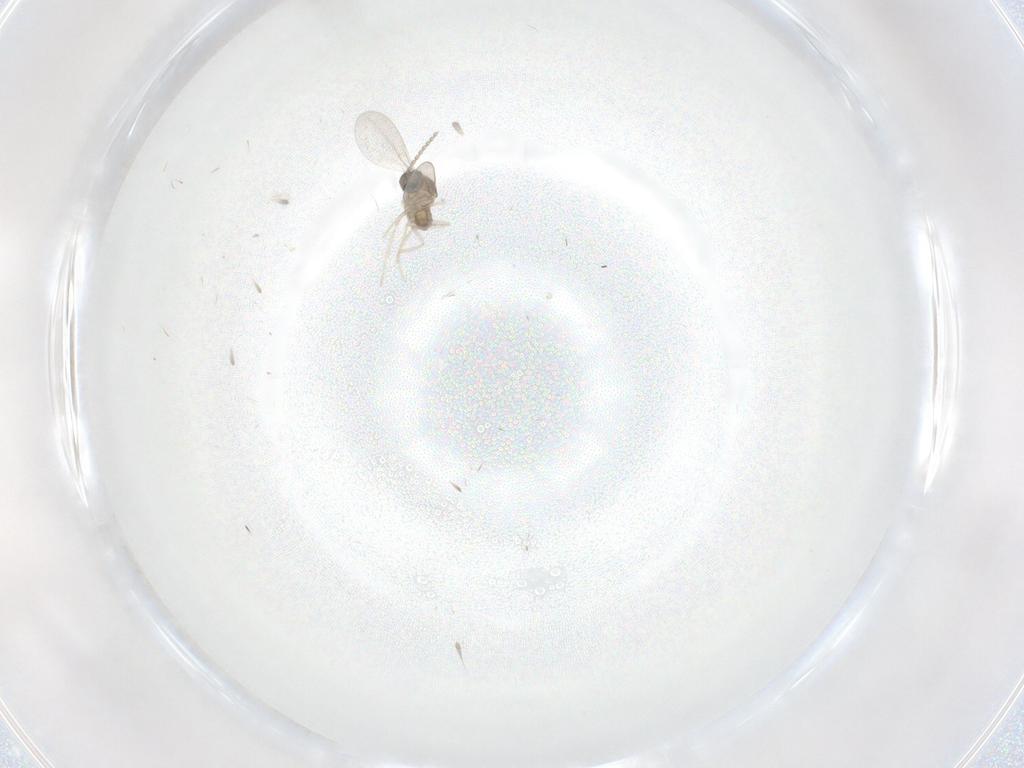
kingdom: Animalia
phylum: Arthropoda
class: Insecta
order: Diptera
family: Cecidomyiidae
